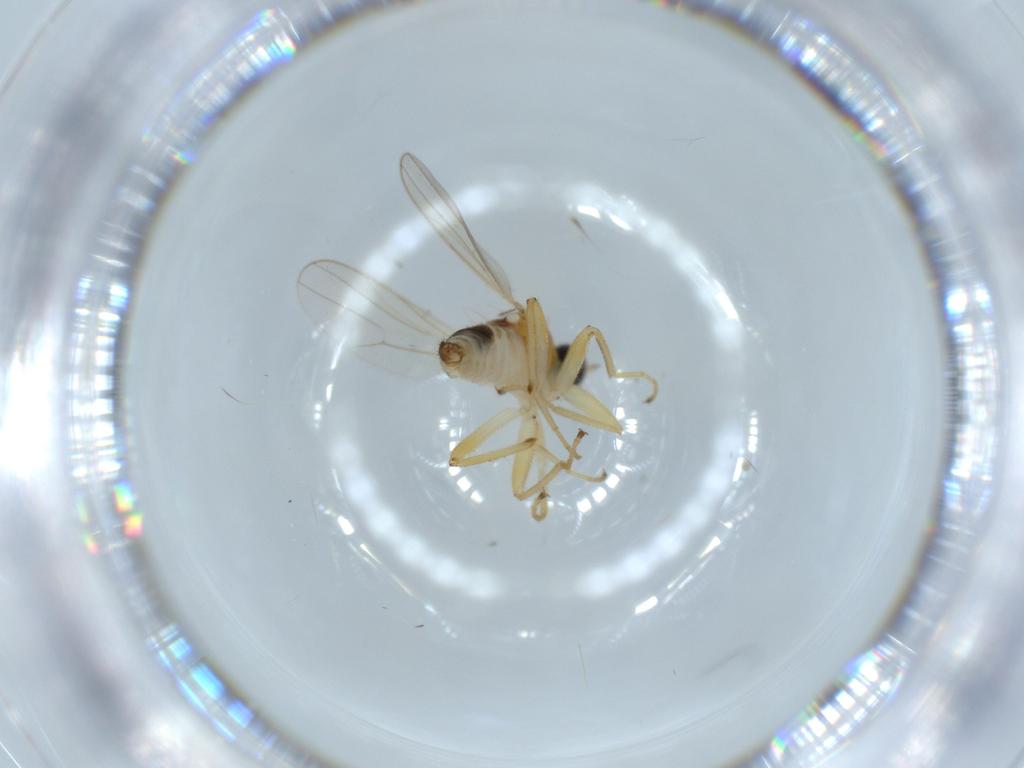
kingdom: Animalia
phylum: Arthropoda
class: Insecta
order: Diptera
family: Hybotidae
